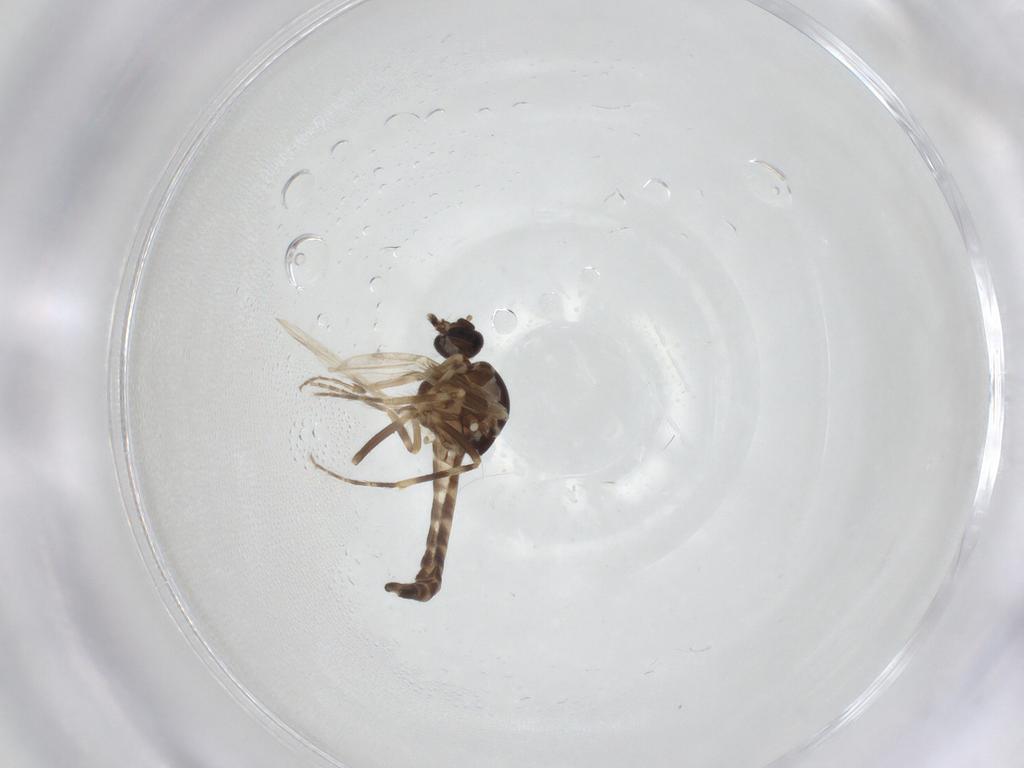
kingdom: Animalia
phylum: Arthropoda
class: Insecta
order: Diptera
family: Ceratopogonidae
